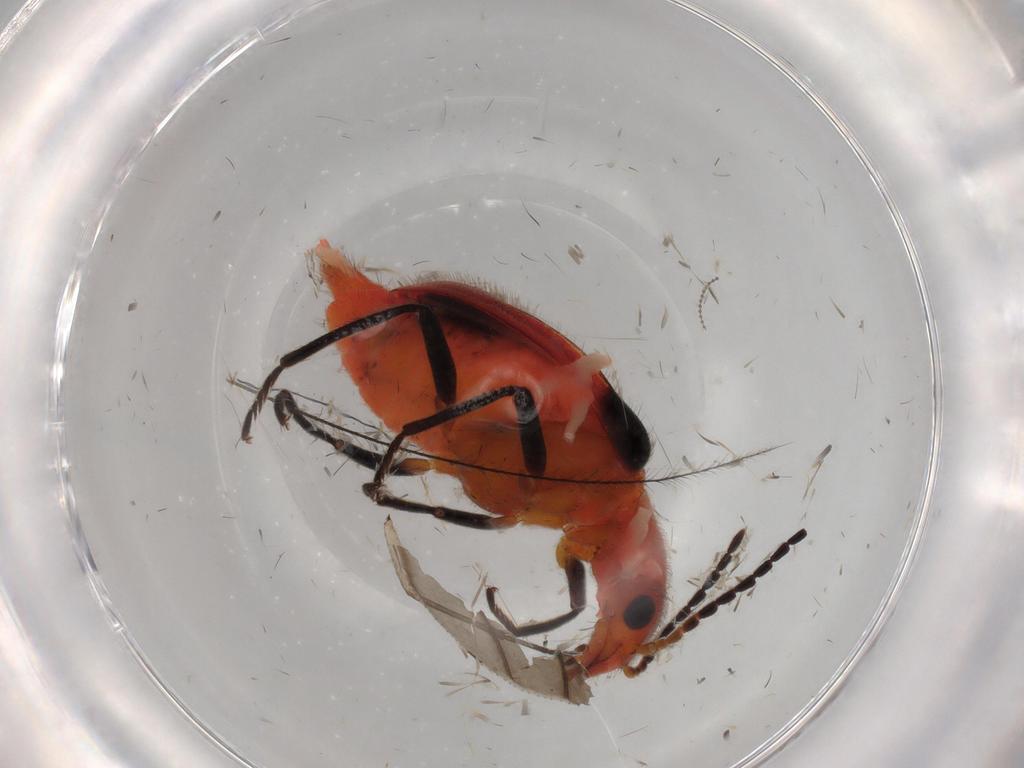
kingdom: Animalia
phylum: Arthropoda
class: Insecta
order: Coleoptera
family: Melyridae
